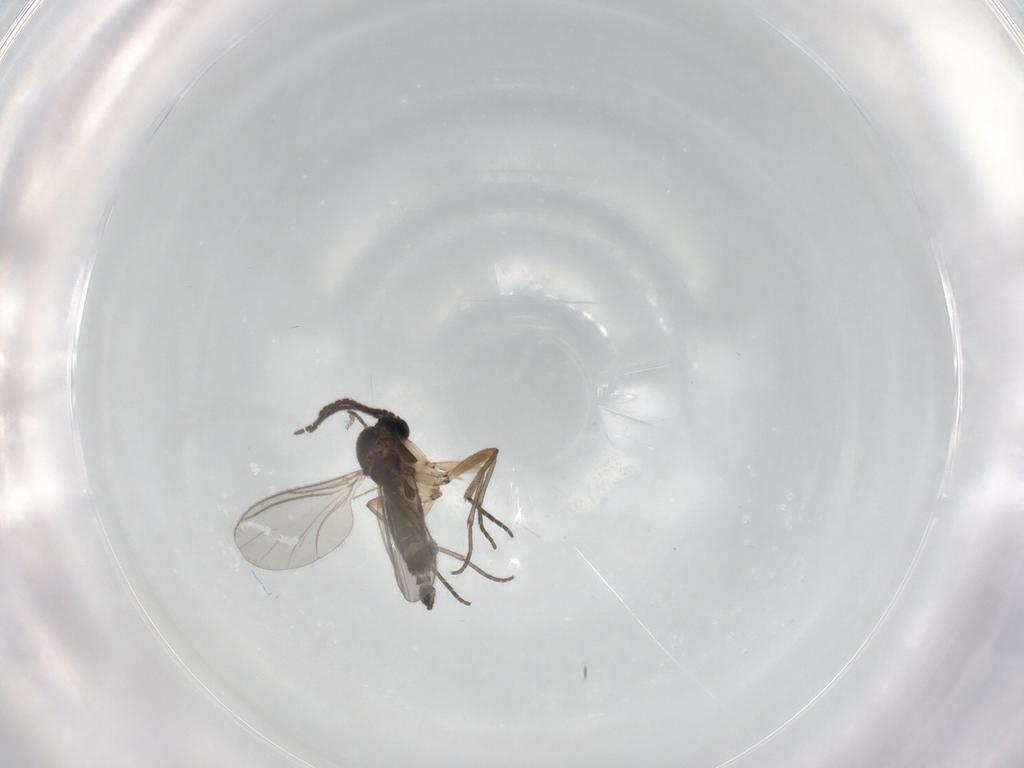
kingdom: Animalia
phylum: Arthropoda
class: Insecta
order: Diptera
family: Sciaridae
